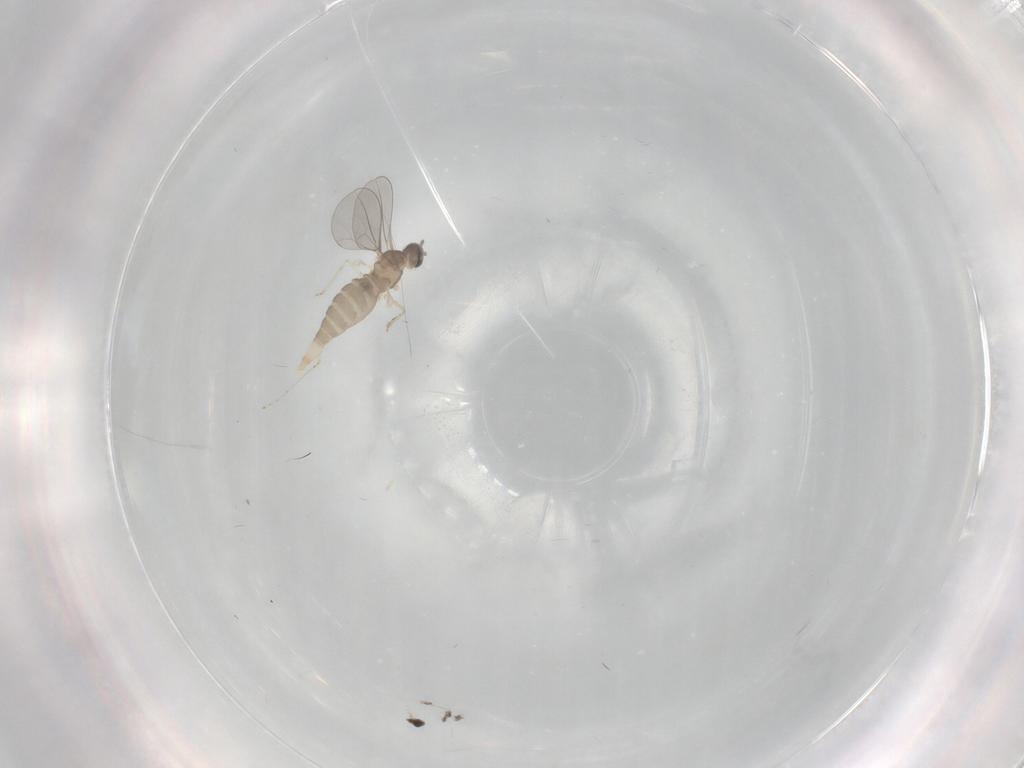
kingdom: Animalia
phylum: Arthropoda
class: Insecta
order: Diptera
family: Cecidomyiidae
